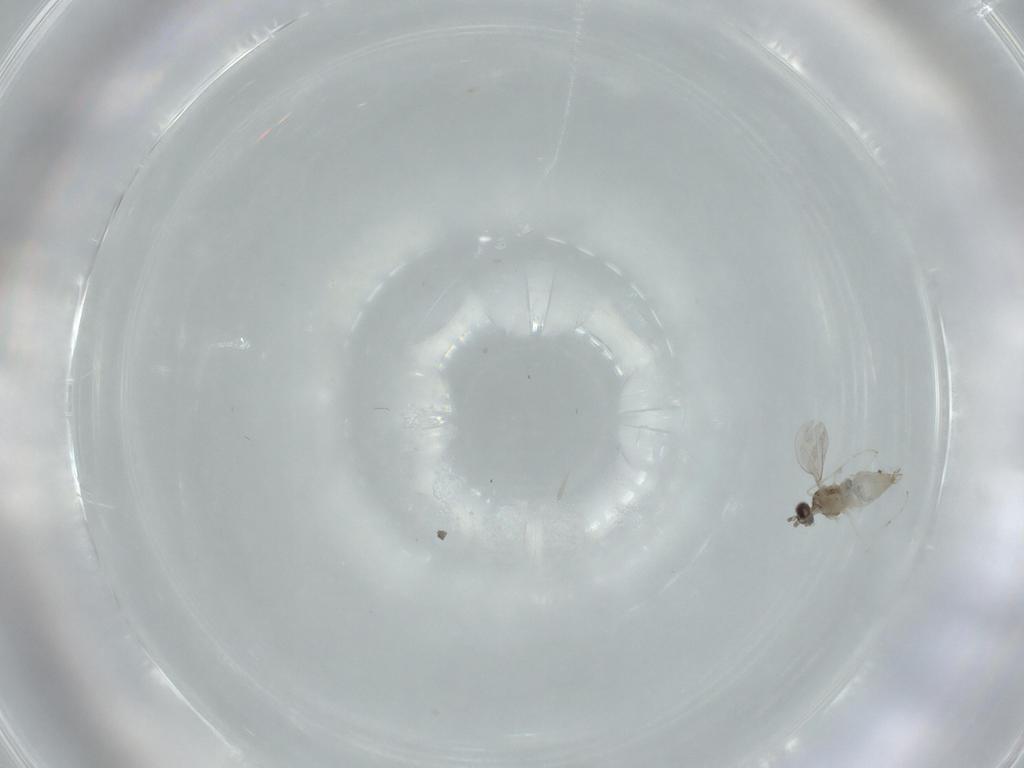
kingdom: Animalia
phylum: Arthropoda
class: Insecta
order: Diptera
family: Cecidomyiidae
